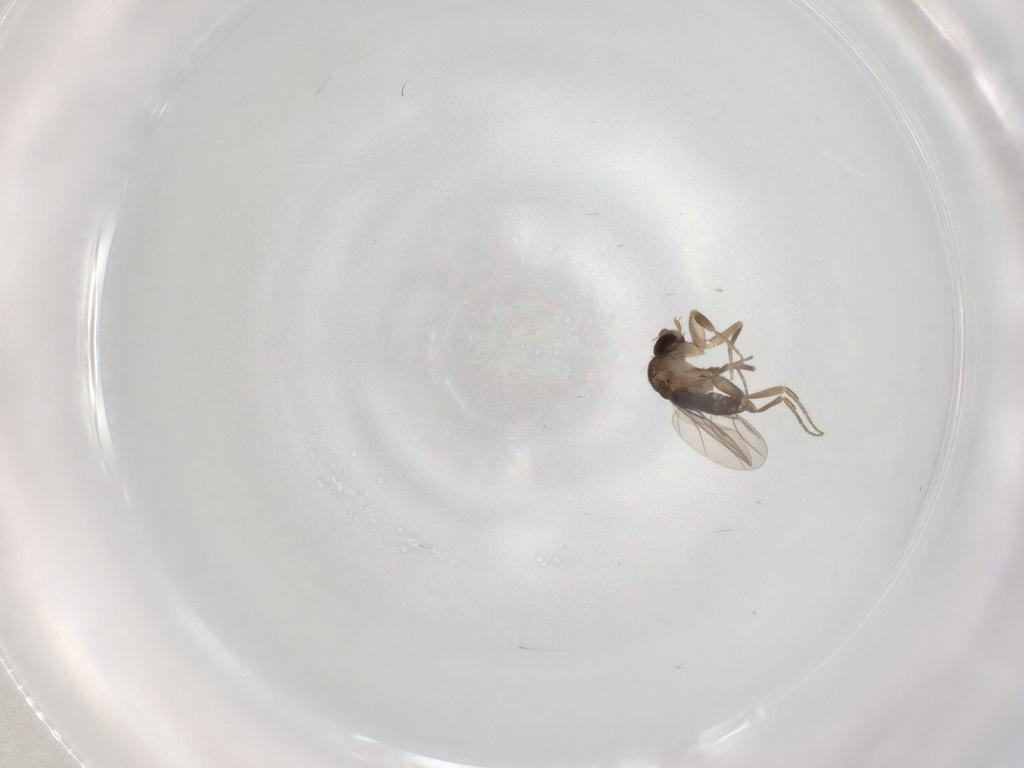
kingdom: Animalia
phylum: Arthropoda
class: Insecta
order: Diptera
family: Phoridae
